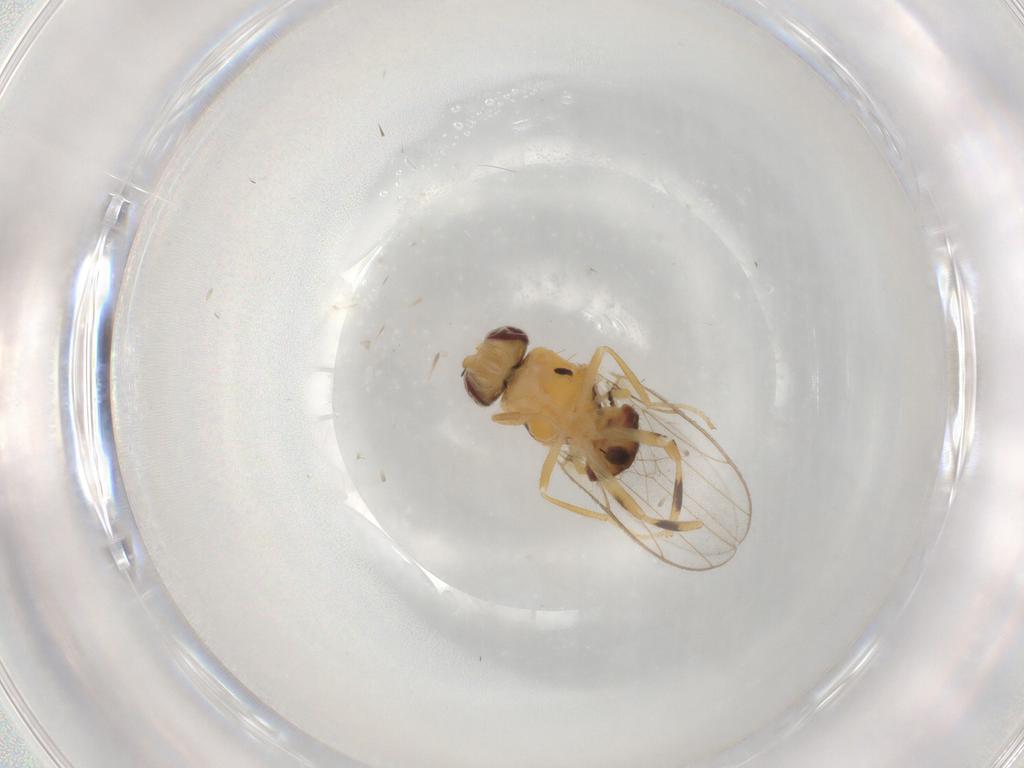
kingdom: Animalia
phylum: Arthropoda
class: Insecta
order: Diptera
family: Chloropidae
